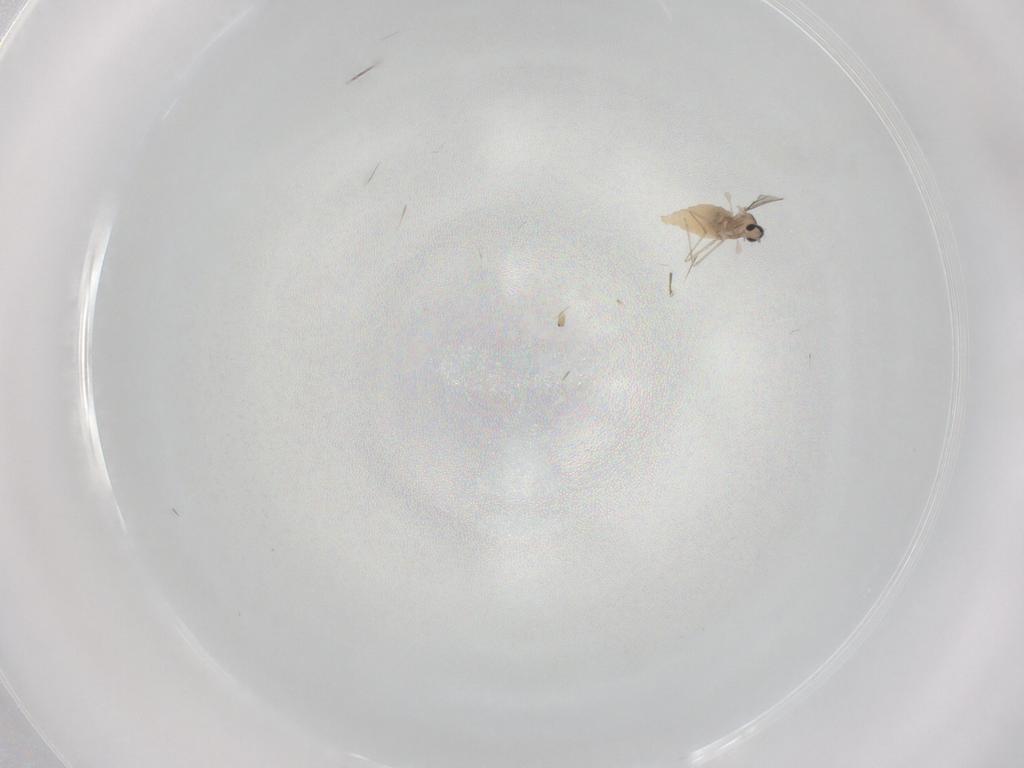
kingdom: Animalia
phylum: Arthropoda
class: Insecta
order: Diptera
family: Cecidomyiidae
